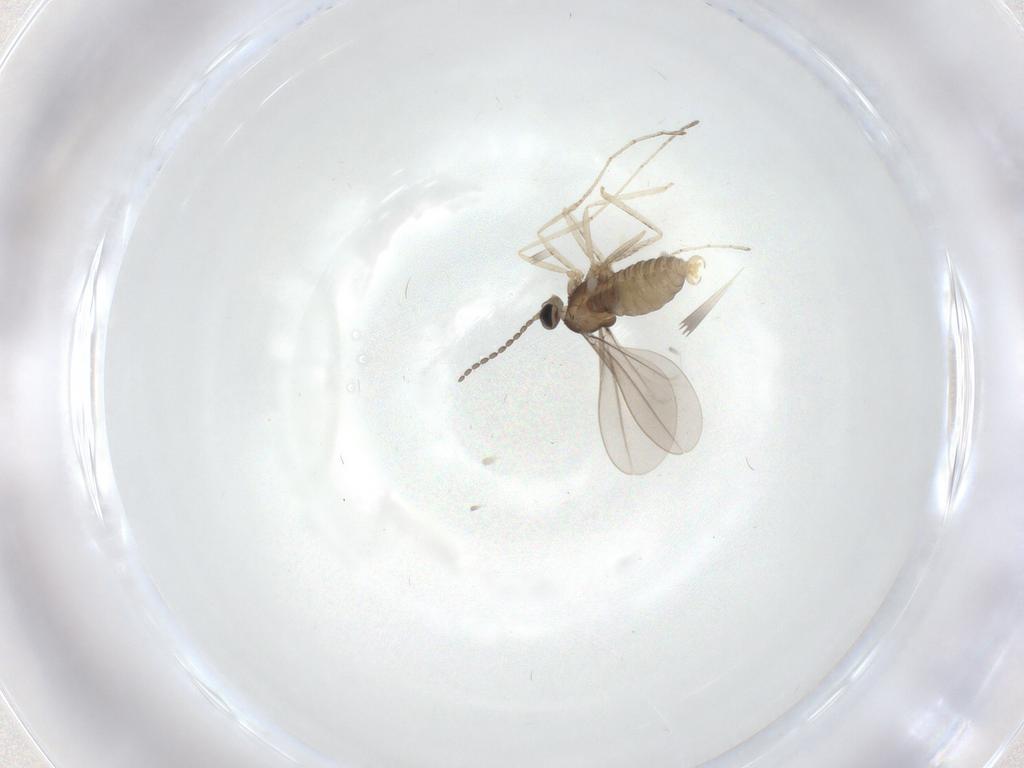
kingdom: Animalia
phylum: Arthropoda
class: Insecta
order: Diptera
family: Cecidomyiidae
